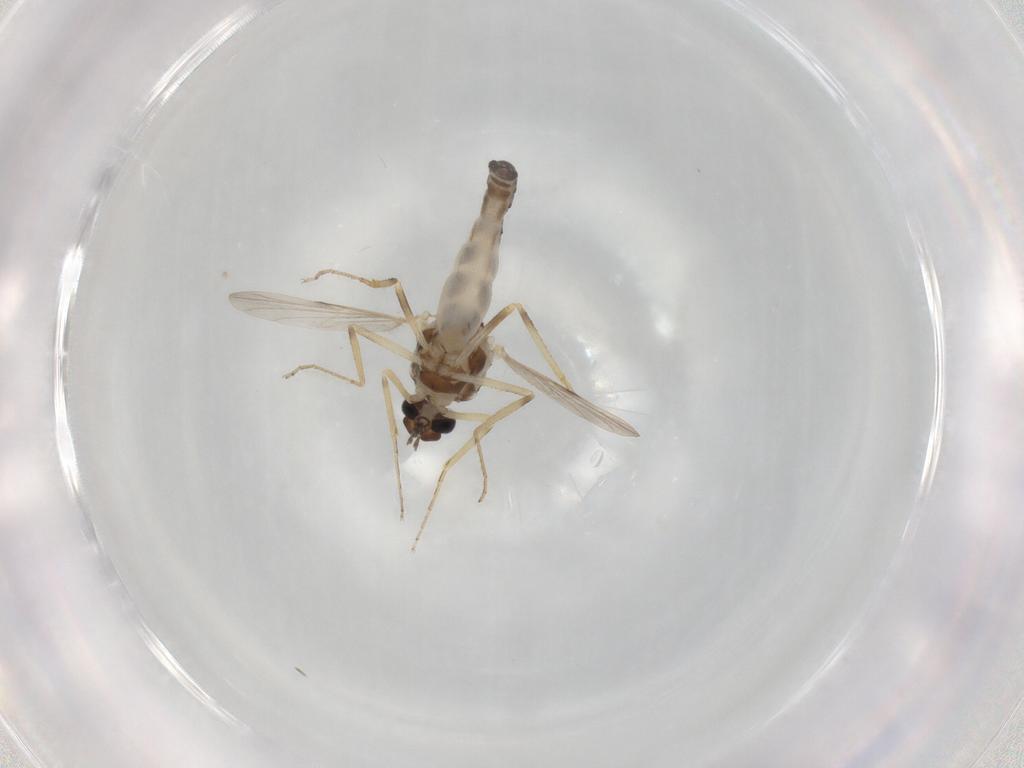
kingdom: Animalia
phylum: Arthropoda
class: Insecta
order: Diptera
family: Ceratopogonidae
